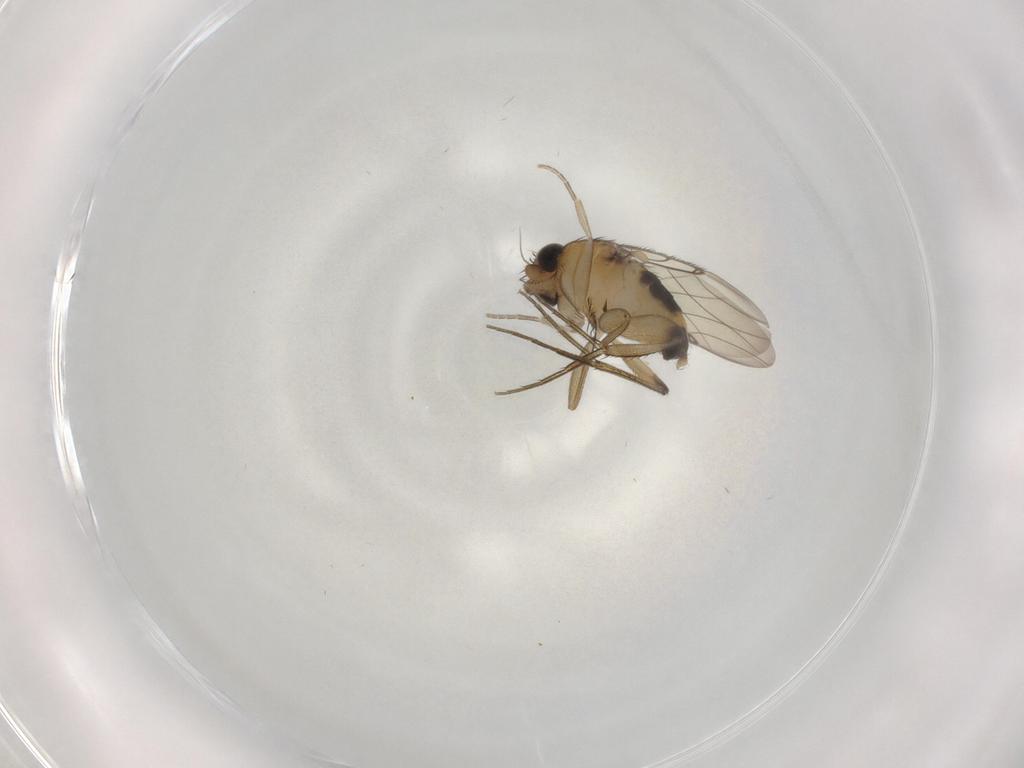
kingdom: Animalia
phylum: Arthropoda
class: Insecta
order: Diptera
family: Phoridae
